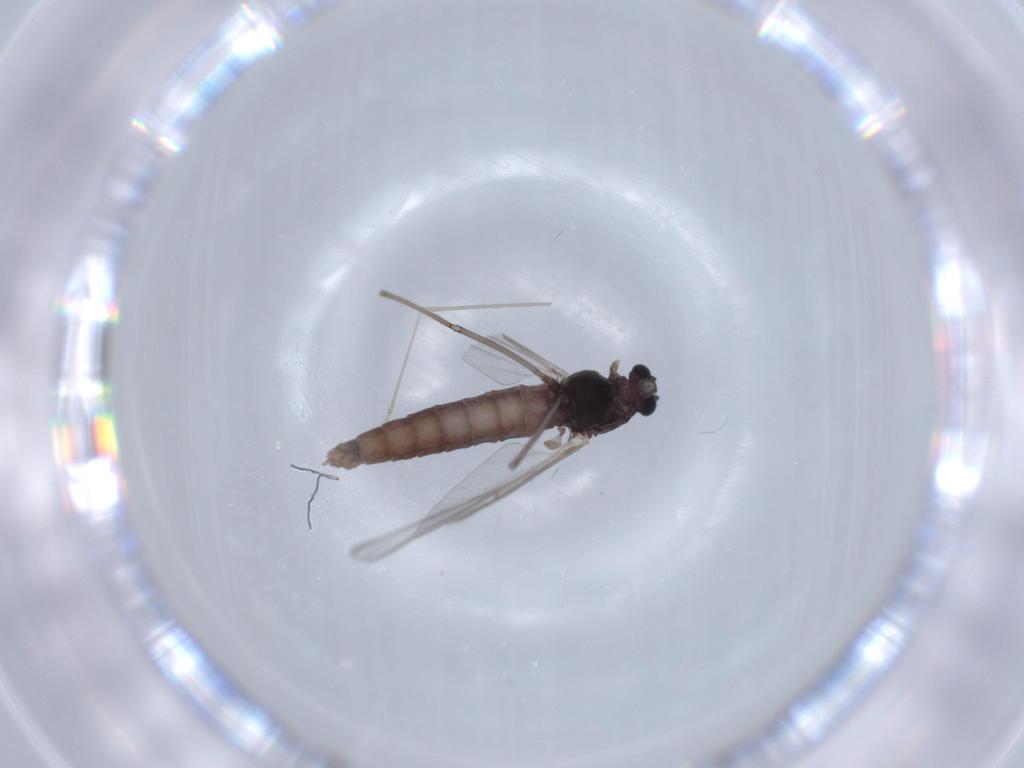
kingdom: Animalia
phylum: Arthropoda
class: Insecta
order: Diptera
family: Chironomidae
